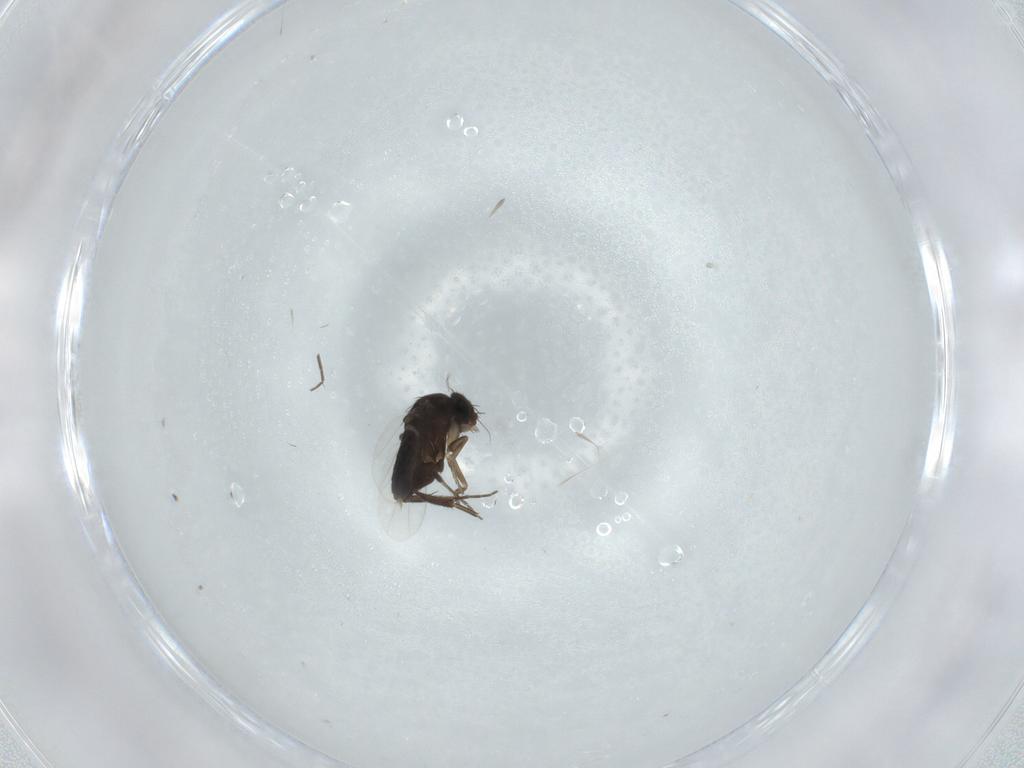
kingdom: Animalia
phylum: Arthropoda
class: Insecta
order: Diptera
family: Phoridae
